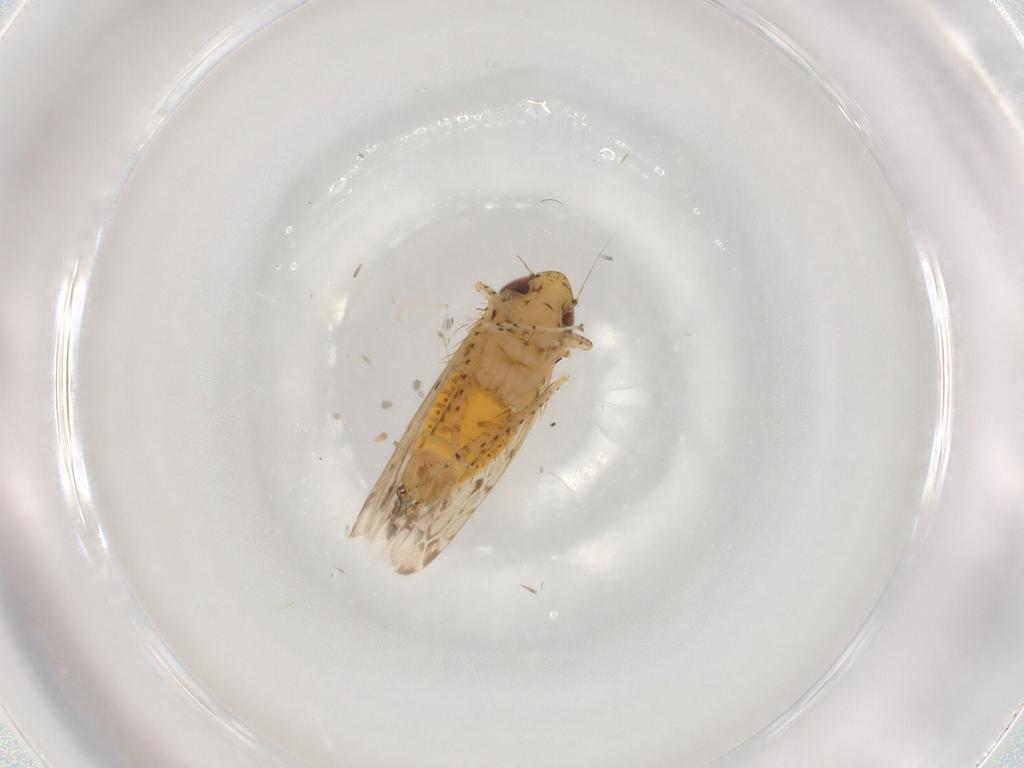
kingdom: Animalia
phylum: Arthropoda
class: Insecta
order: Hemiptera
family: Cicadellidae
